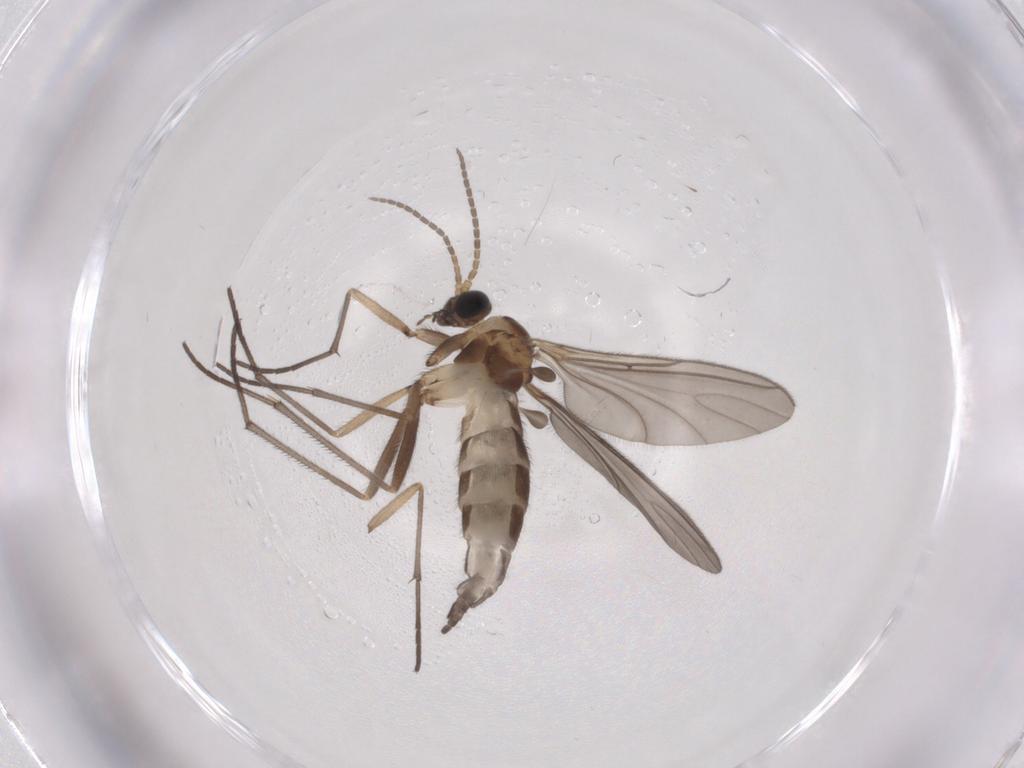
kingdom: Animalia
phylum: Arthropoda
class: Insecta
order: Diptera
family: Sciaridae
